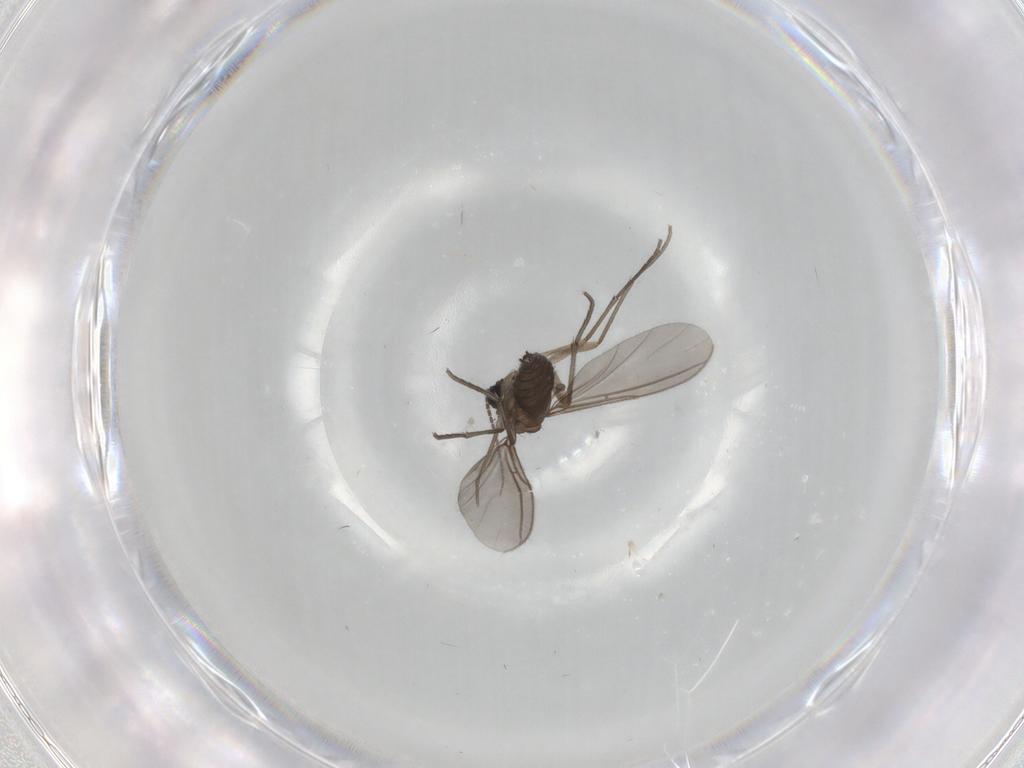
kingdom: Animalia
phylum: Arthropoda
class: Insecta
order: Diptera
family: Sciaridae
